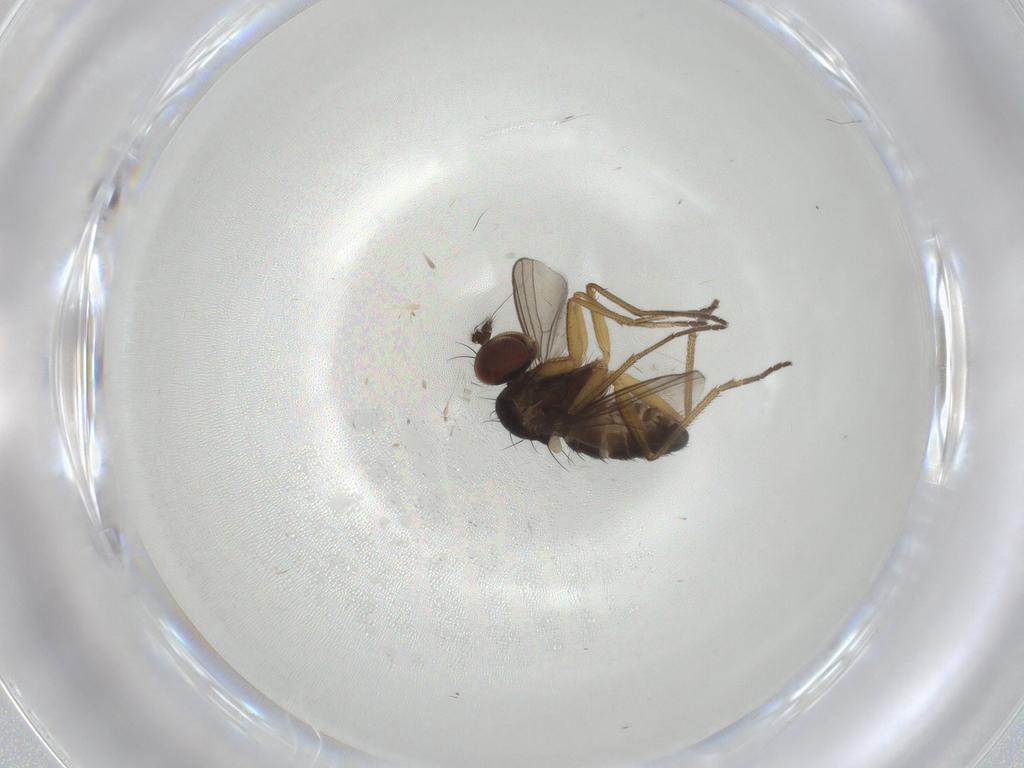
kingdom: Animalia
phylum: Arthropoda
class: Insecta
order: Diptera
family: Dolichopodidae
